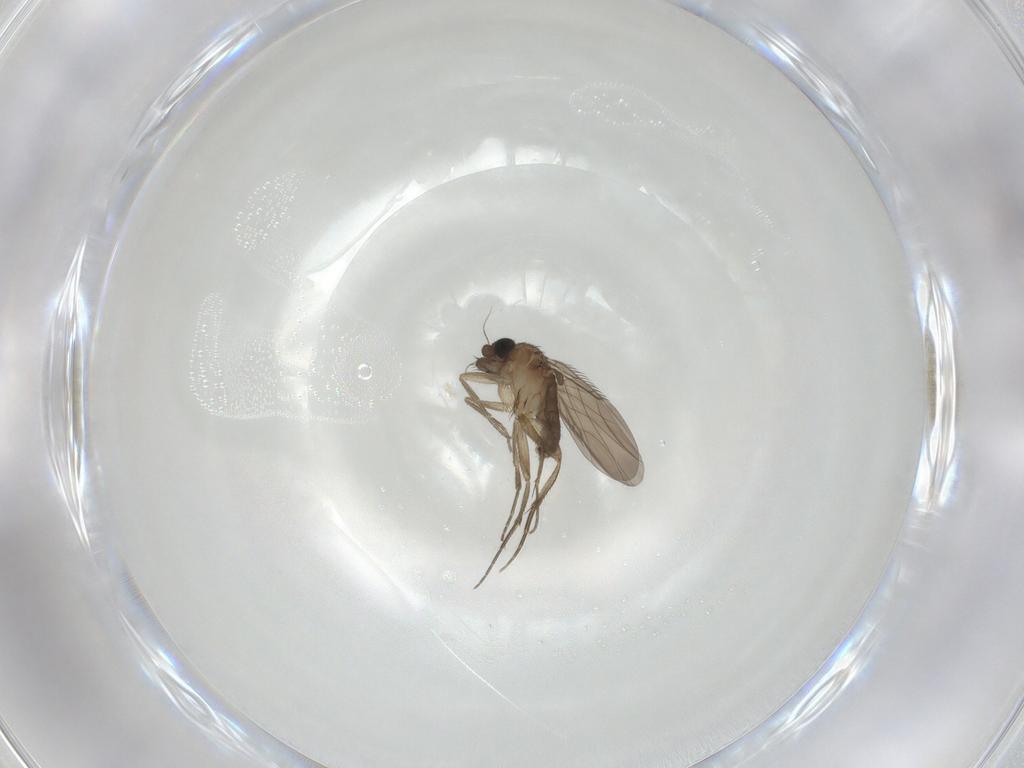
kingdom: Animalia
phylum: Arthropoda
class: Insecta
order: Diptera
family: Phoridae
